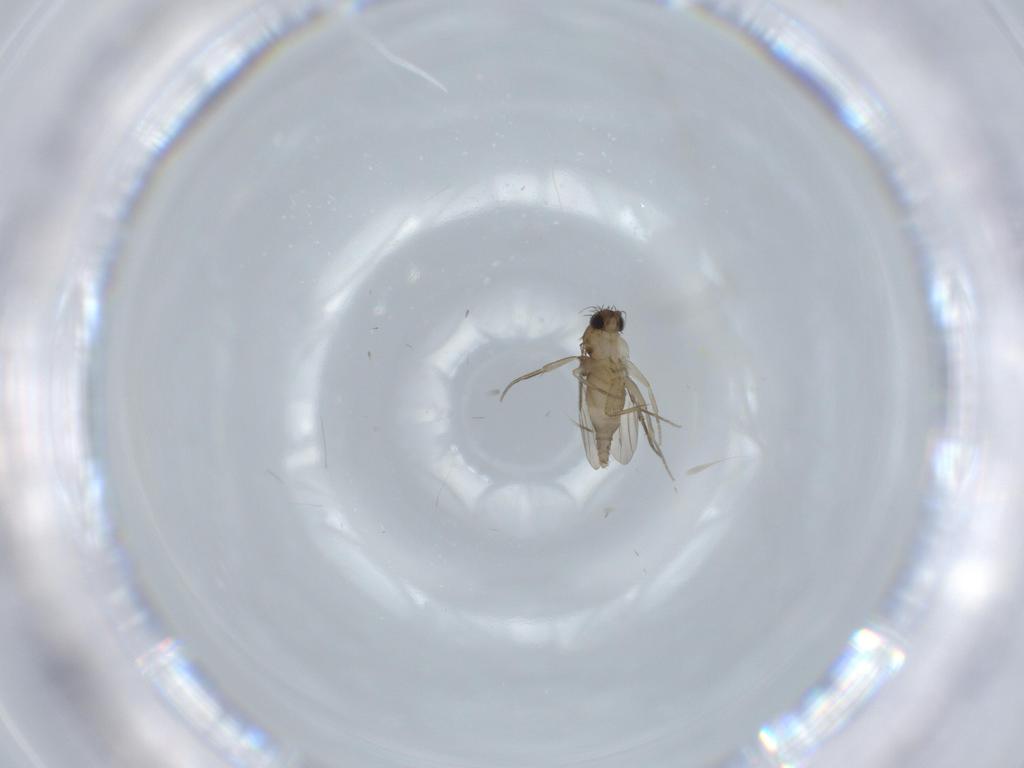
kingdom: Animalia
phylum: Arthropoda
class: Insecta
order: Diptera
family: Phoridae
